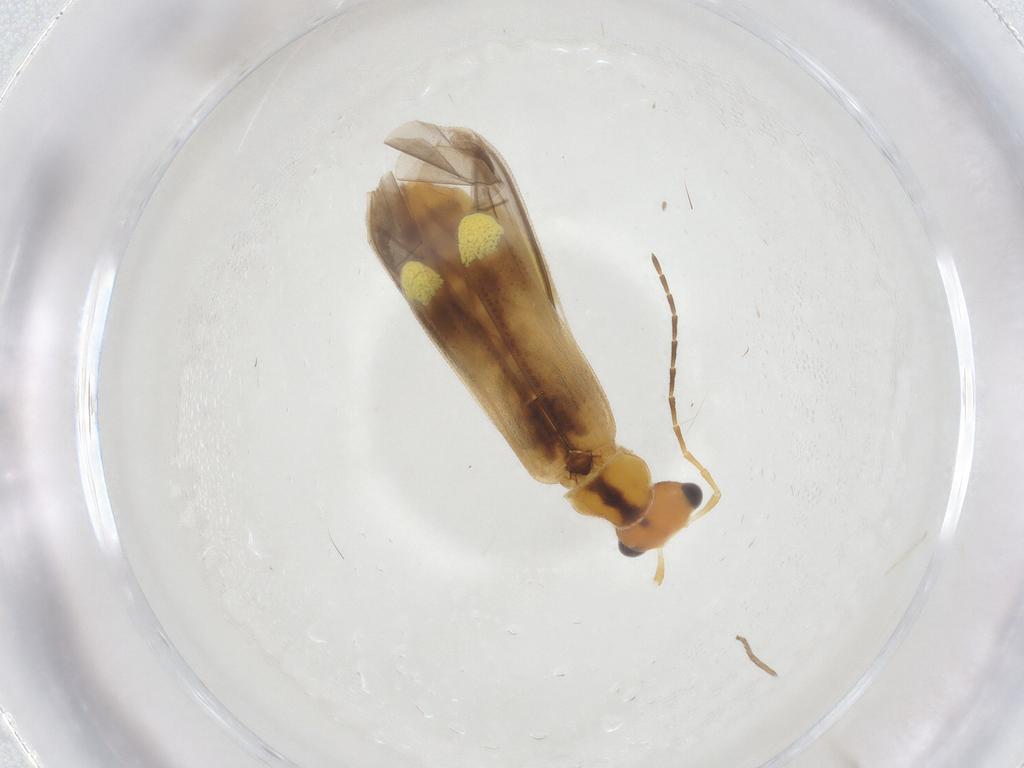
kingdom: Animalia
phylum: Arthropoda
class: Insecta
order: Coleoptera
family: Cantharidae
